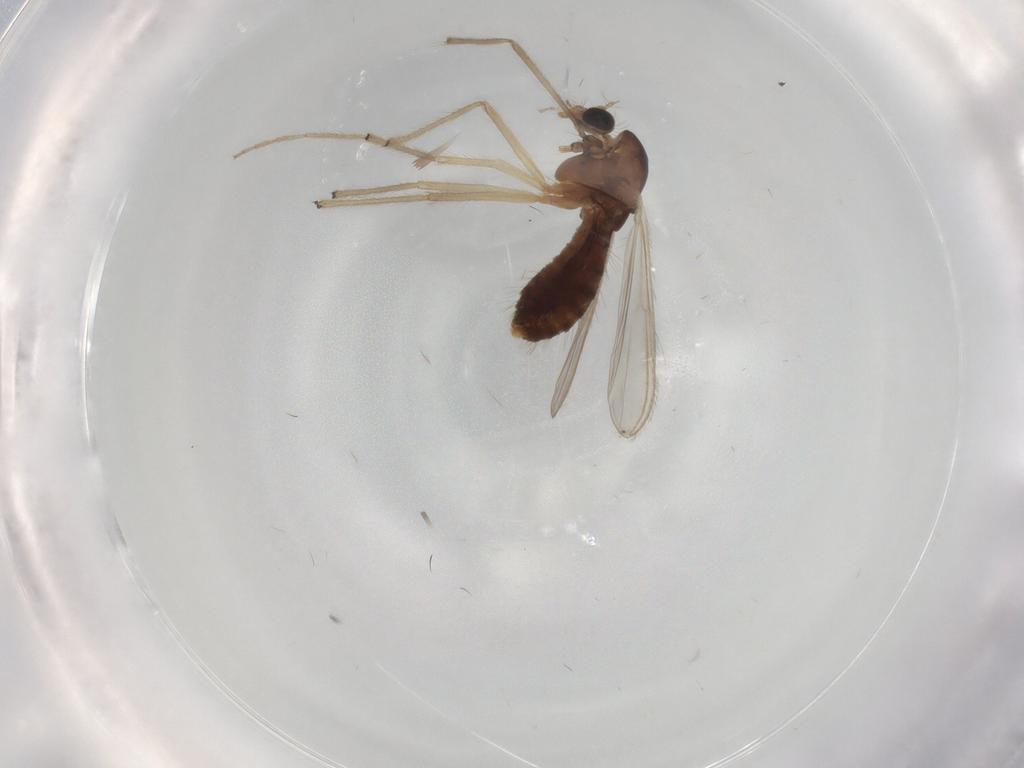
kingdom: Animalia
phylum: Arthropoda
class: Insecta
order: Diptera
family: Chironomidae
